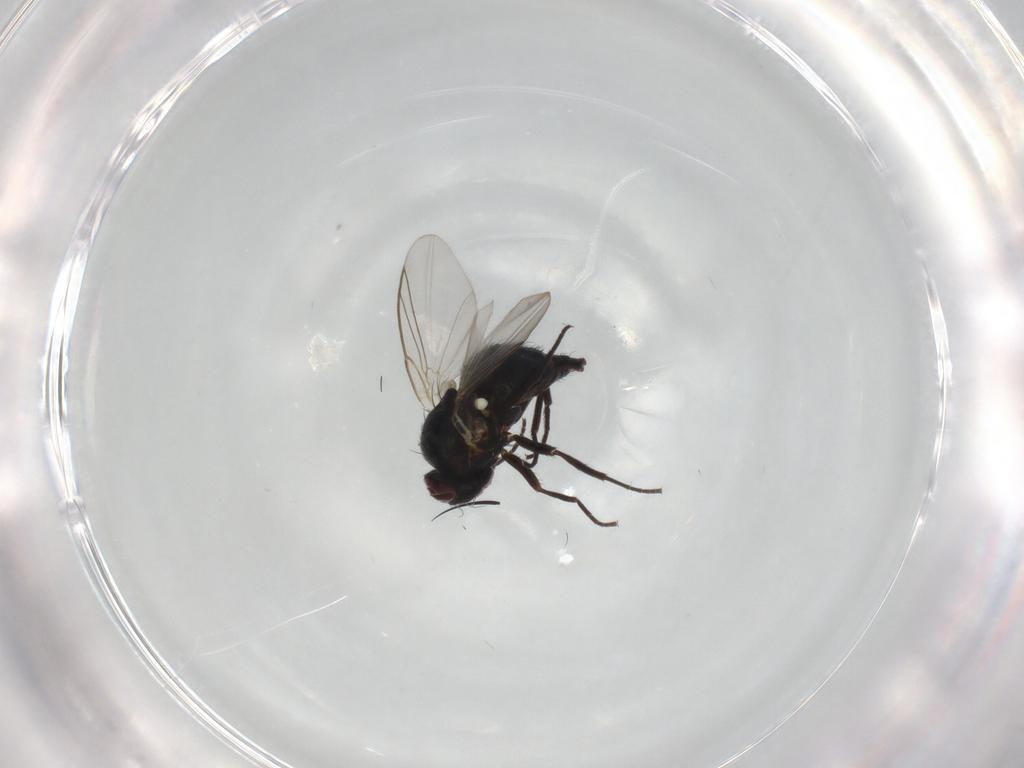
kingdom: Animalia
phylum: Arthropoda
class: Insecta
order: Diptera
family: Agromyzidae
